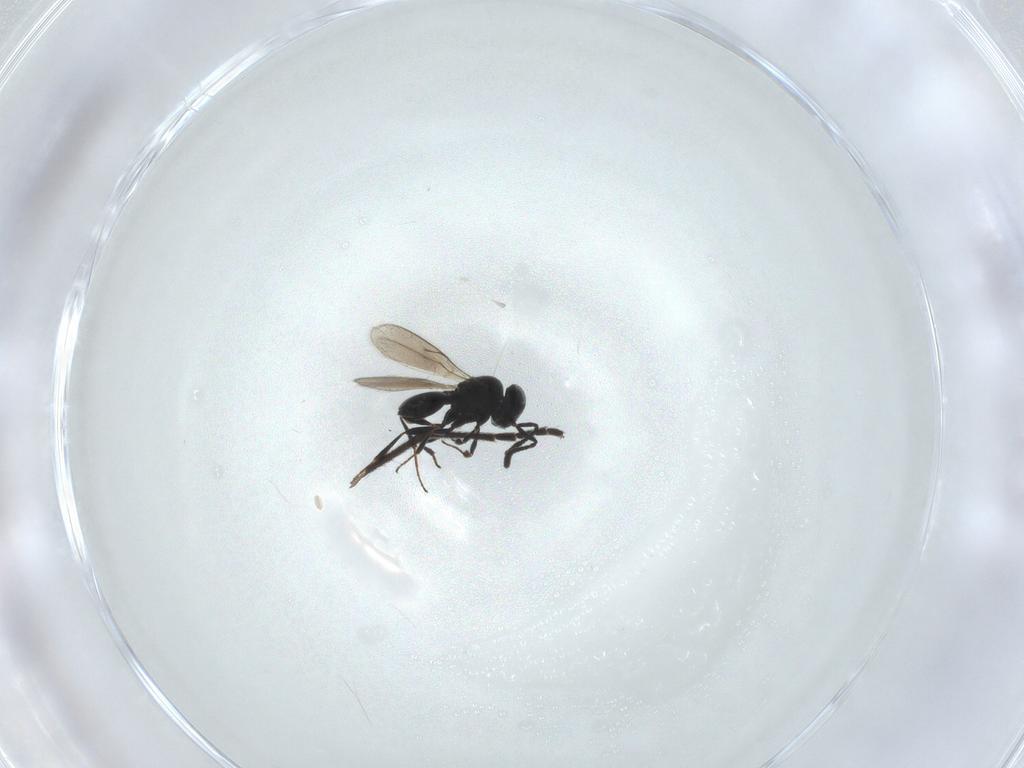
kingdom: Animalia
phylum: Arthropoda
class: Insecta
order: Hymenoptera
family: Scelionidae
